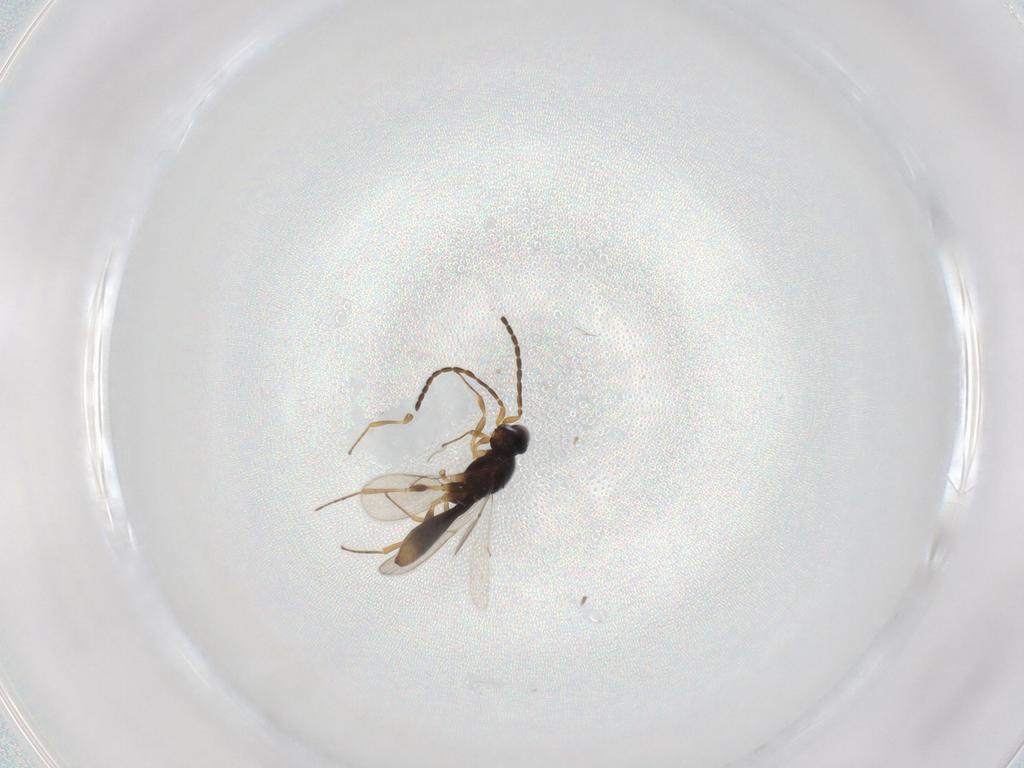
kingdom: Animalia
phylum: Arthropoda
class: Insecta
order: Hymenoptera
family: Scelionidae
